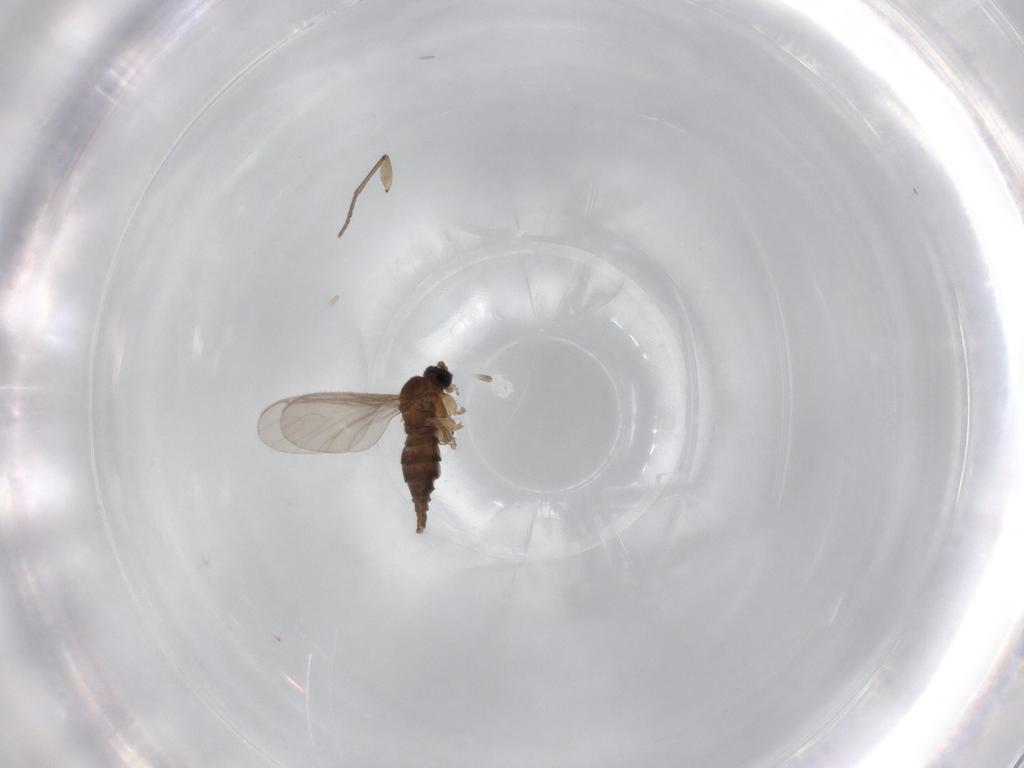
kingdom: Animalia
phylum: Arthropoda
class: Insecta
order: Diptera
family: Sciaridae
